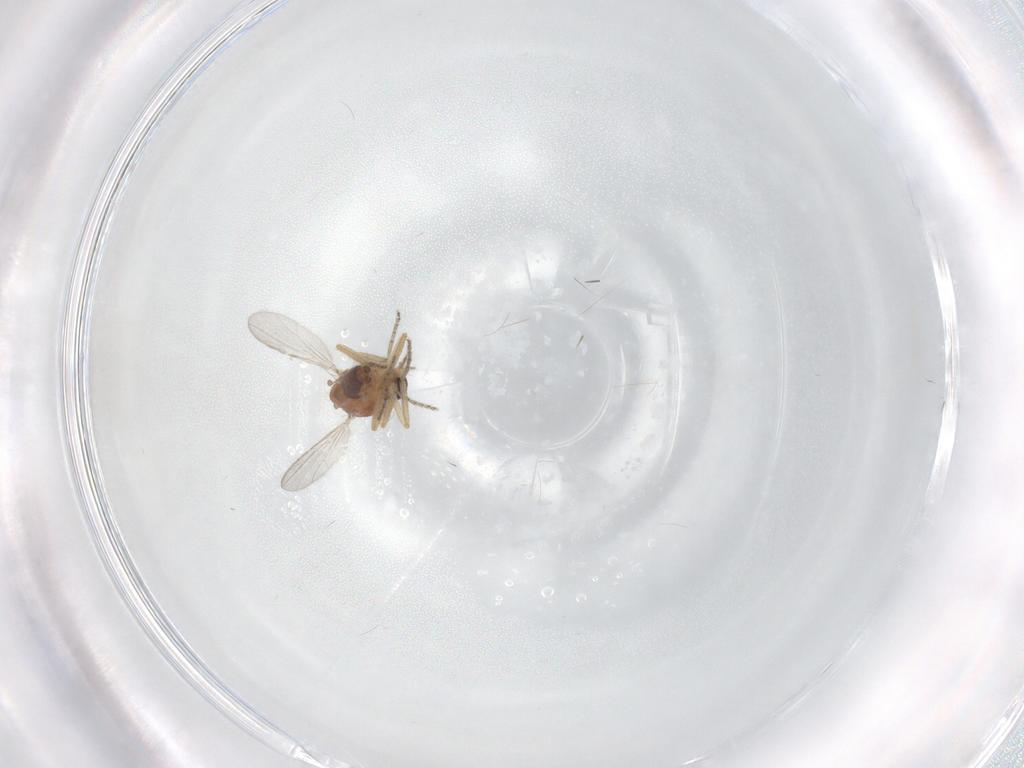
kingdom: Animalia
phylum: Arthropoda
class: Insecta
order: Diptera
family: Ceratopogonidae
